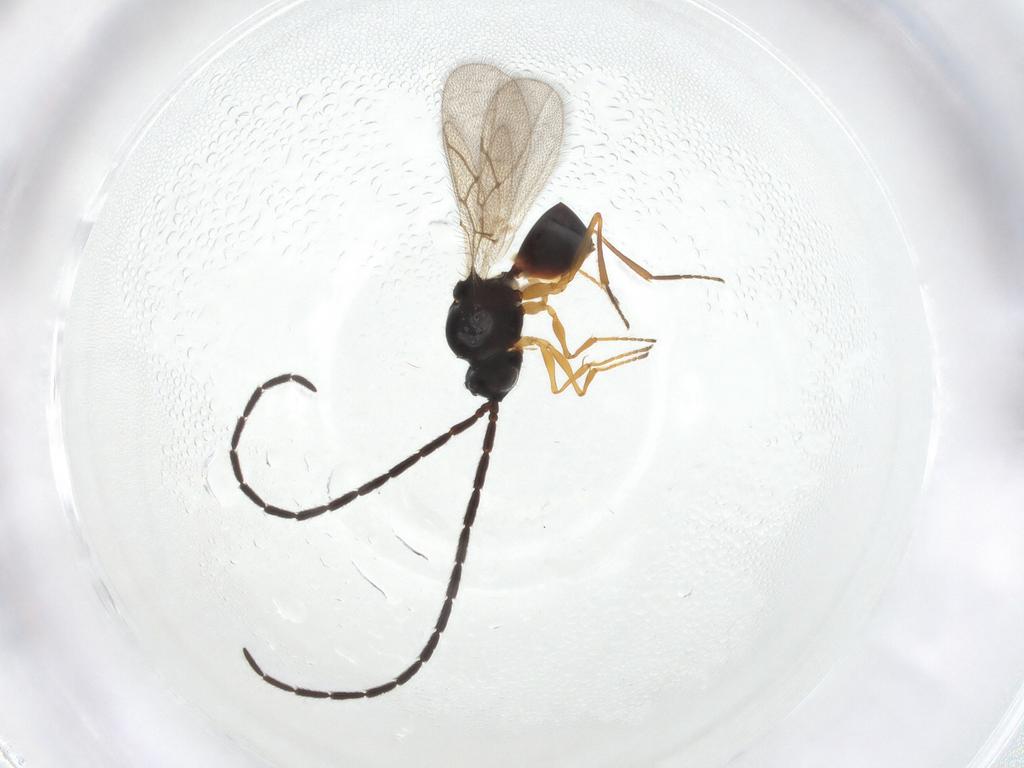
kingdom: Animalia
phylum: Arthropoda
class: Insecta
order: Hymenoptera
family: Figitidae
